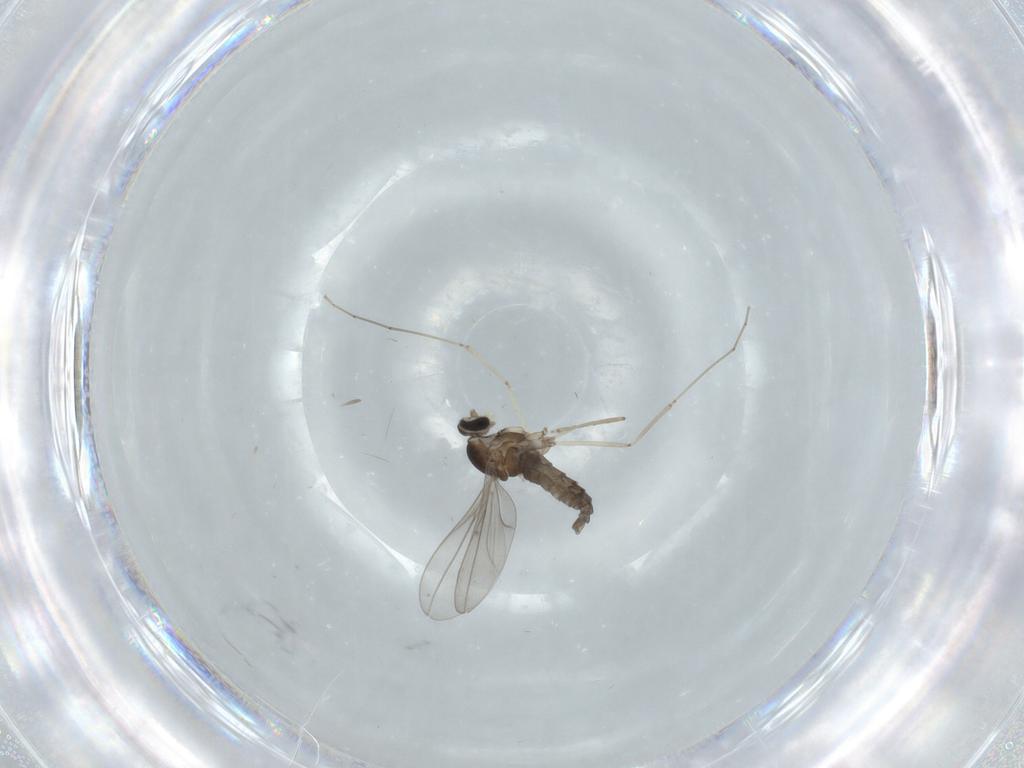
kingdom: Animalia
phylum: Arthropoda
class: Insecta
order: Diptera
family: Cecidomyiidae
